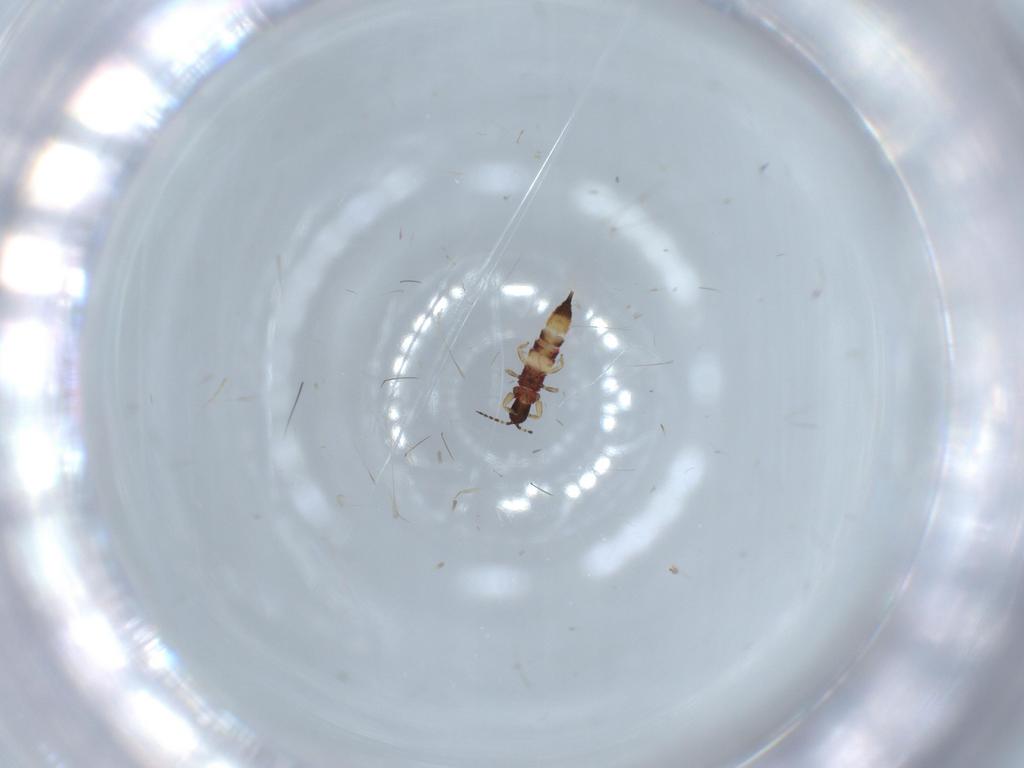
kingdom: Animalia
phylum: Arthropoda
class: Insecta
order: Thysanoptera
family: Phlaeothripidae
